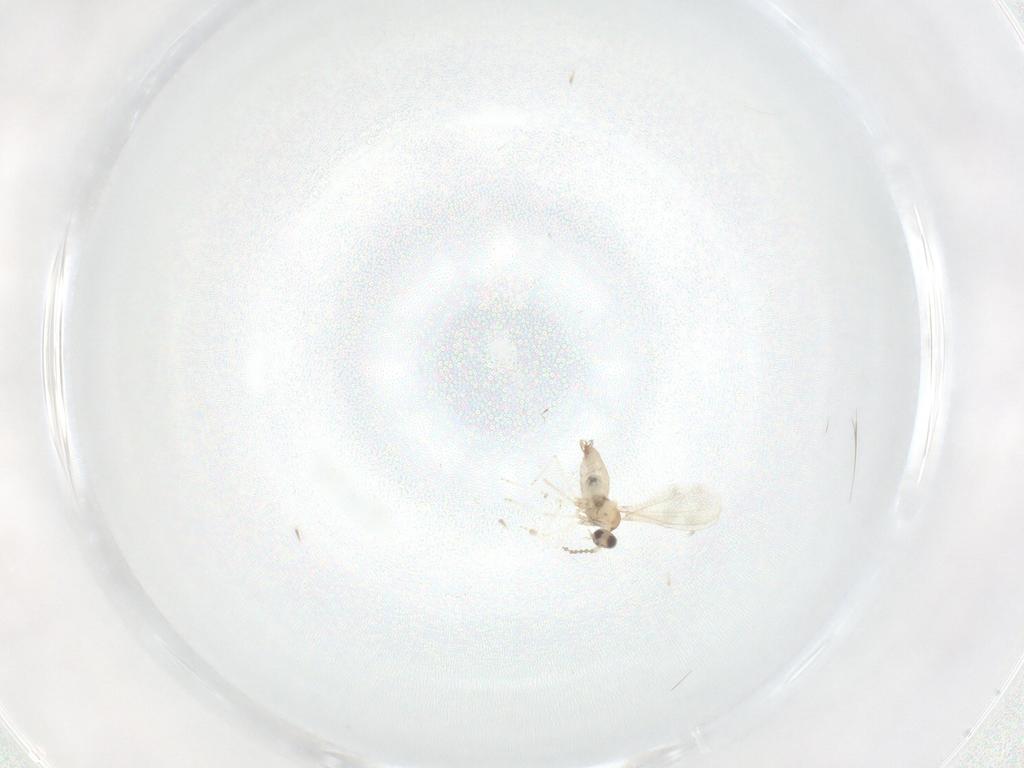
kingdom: Animalia
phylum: Arthropoda
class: Insecta
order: Diptera
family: Cecidomyiidae
